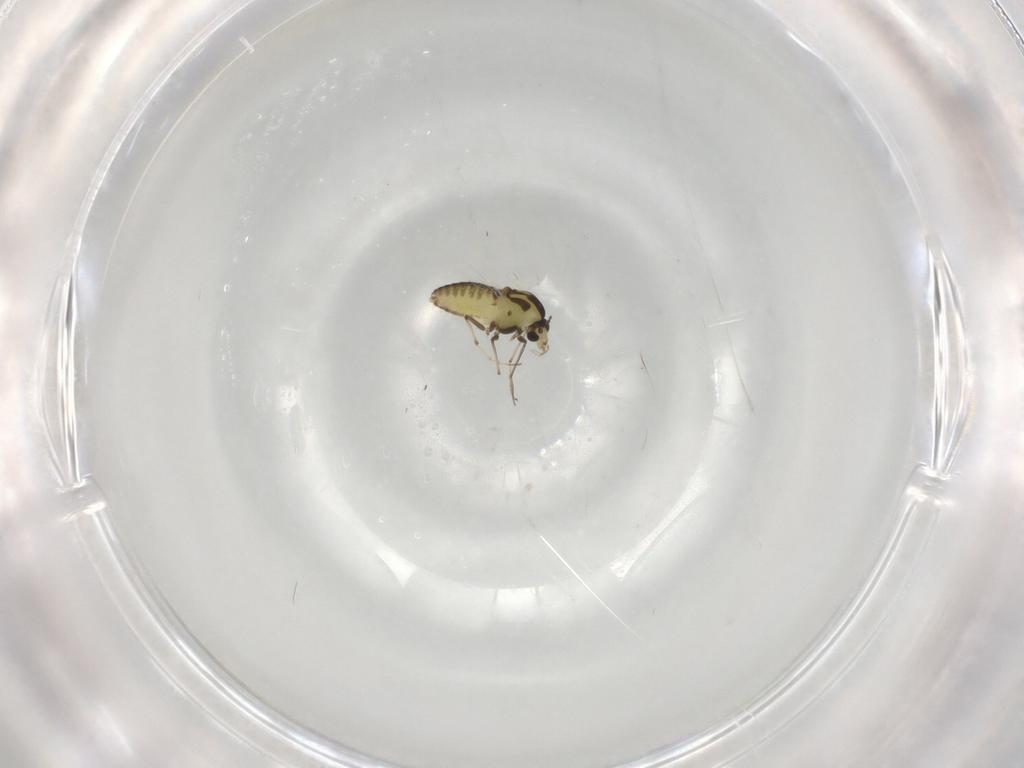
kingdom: Animalia
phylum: Arthropoda
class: Insecta
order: Diptera
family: Chironomidae
